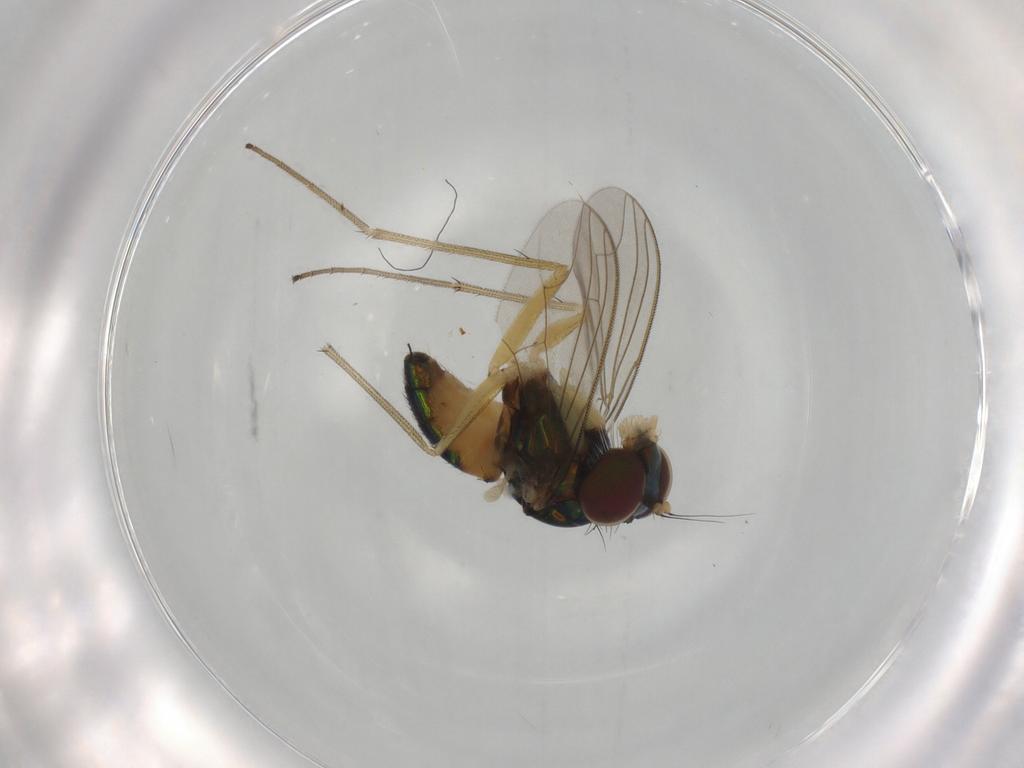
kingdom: Animalia
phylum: Arthropoda
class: Insecta
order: Diptera
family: Dolichopodidae
